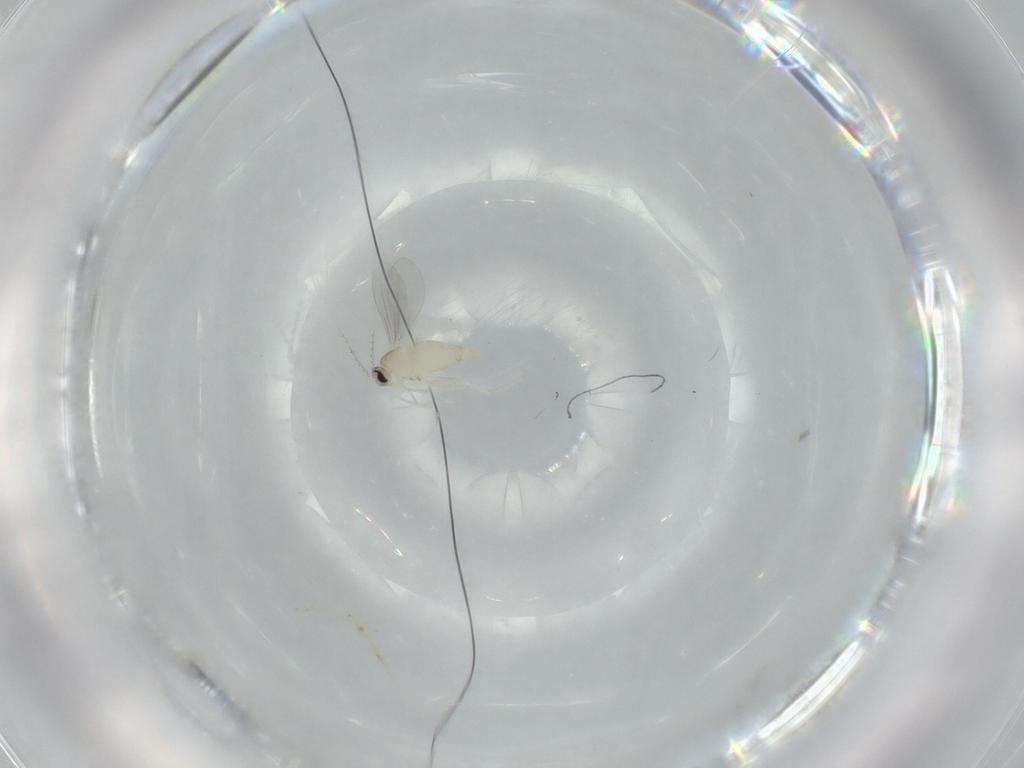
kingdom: Animalia
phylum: Arthropoda
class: Insecta
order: Diptera
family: Cecidomyiidae
